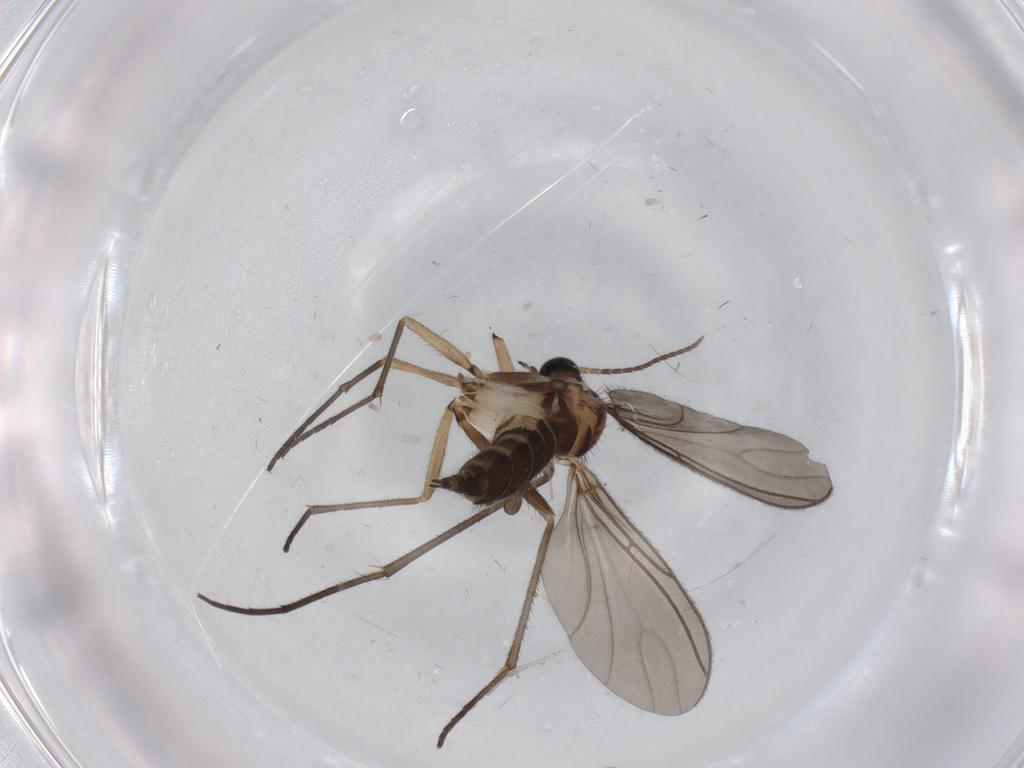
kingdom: Animalia
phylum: Arthropoda
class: Insecta
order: Diptera
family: Sciaridae
